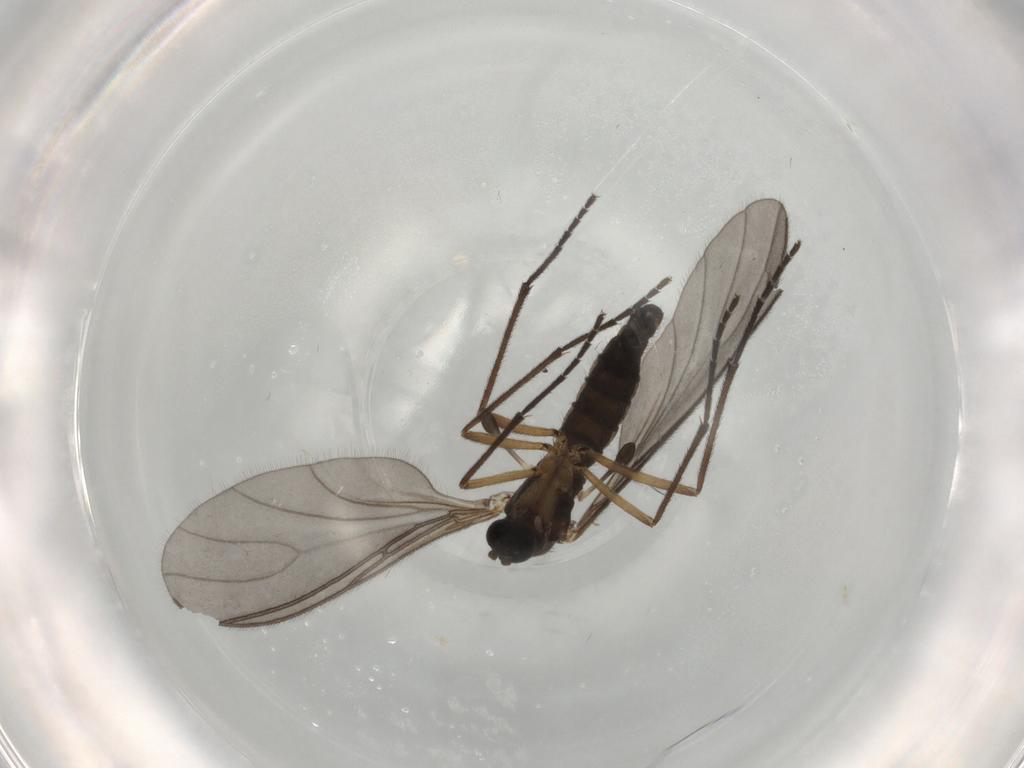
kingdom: Animalia
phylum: Arthropoda
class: Insecta
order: Diptera
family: Sciaridae
